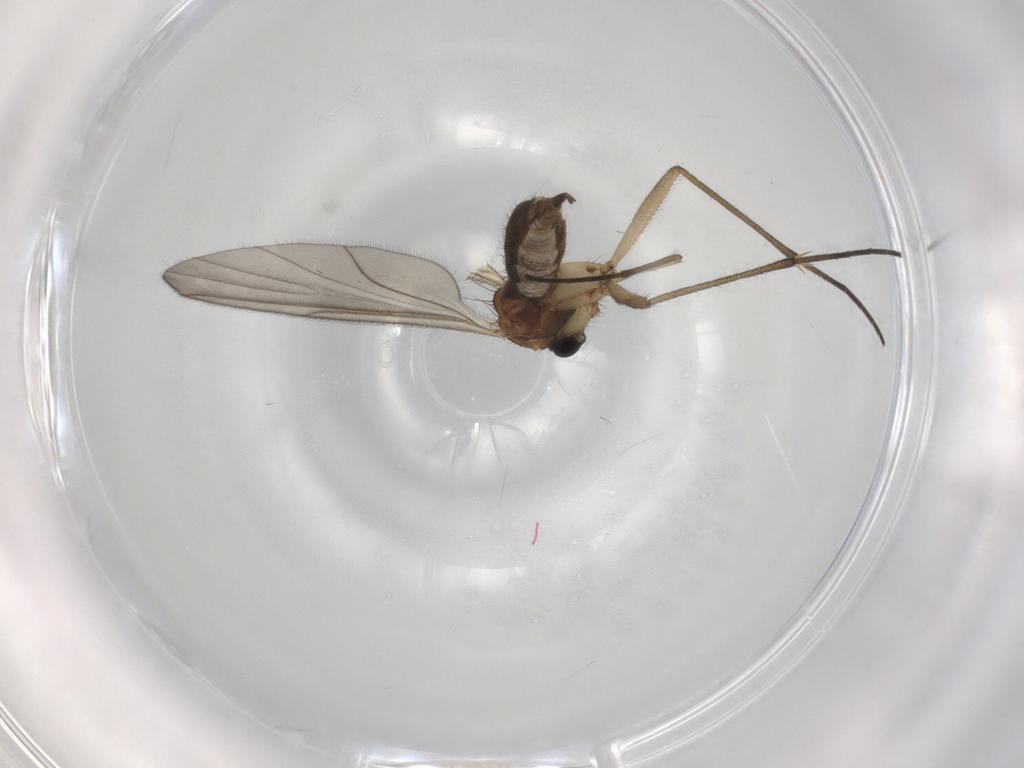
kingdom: Animalia
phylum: Arthropoda
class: Insecta
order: Diptera
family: Sciaridae
